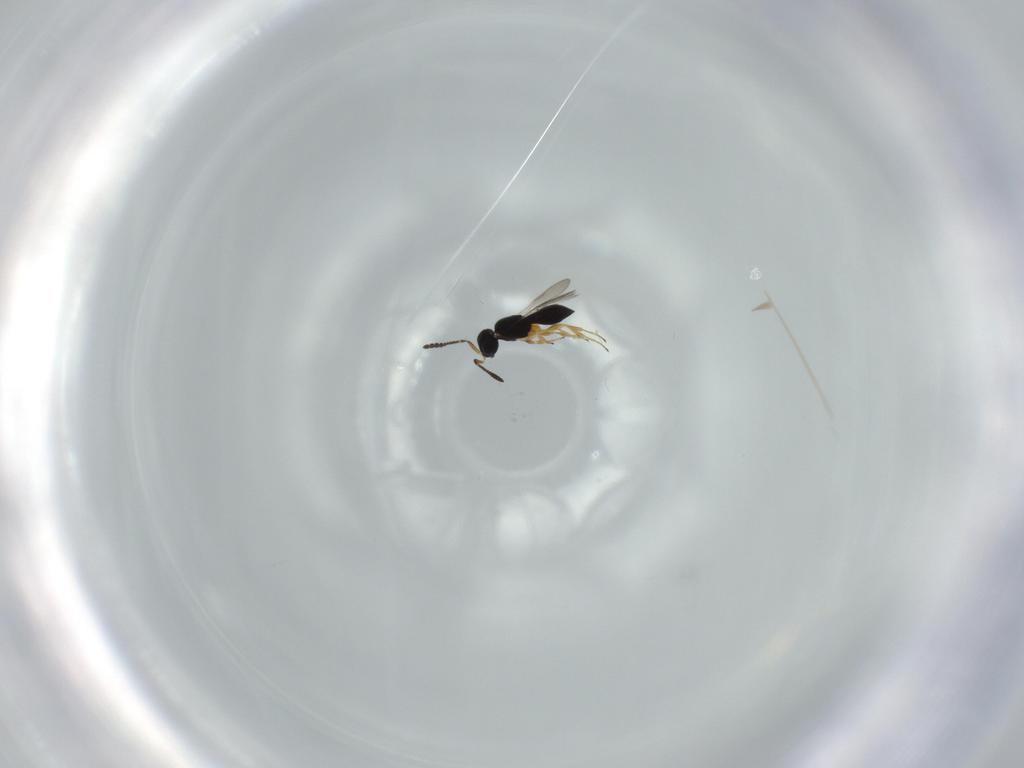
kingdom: Animalia
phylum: Arthropoda
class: Insecta
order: Hymenoptera
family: Scelionidae
